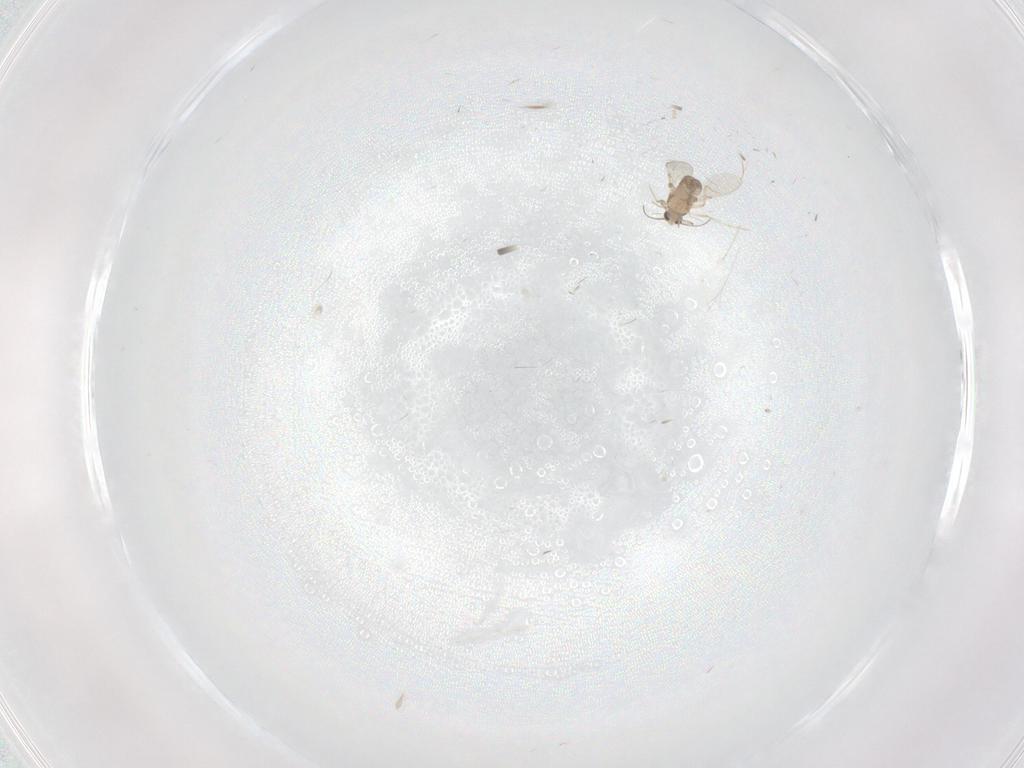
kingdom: Animalia
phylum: Arthropoda
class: Insecta
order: Diptera
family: Cecidomyiidae
